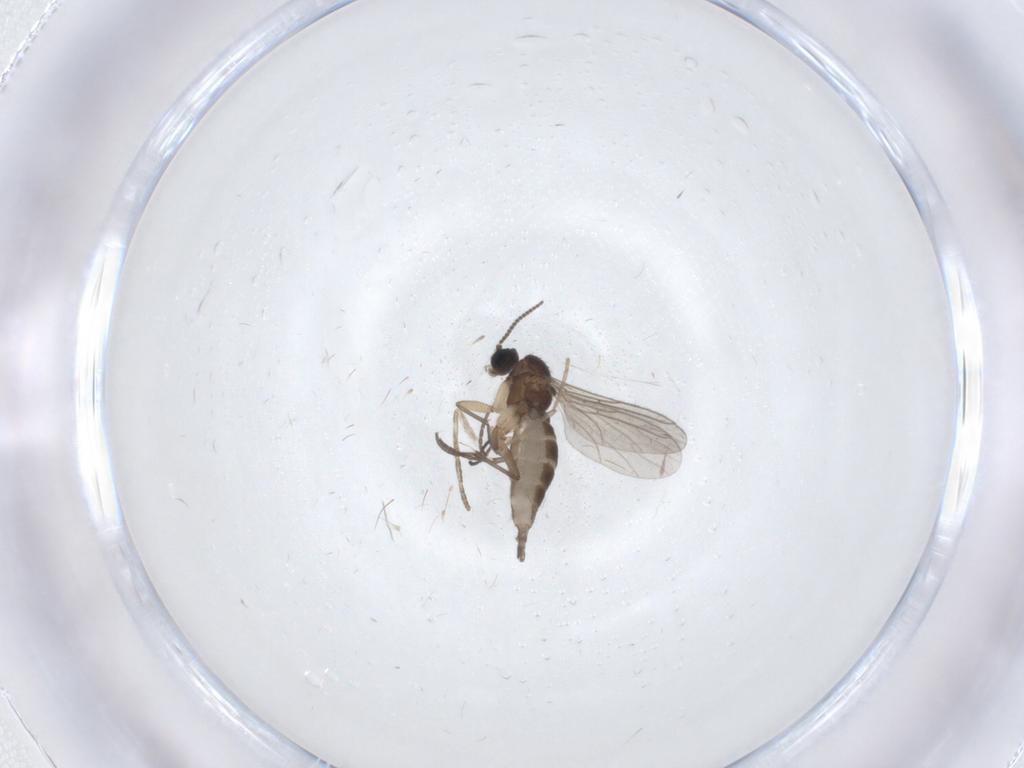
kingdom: Animalia
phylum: Arthropoda
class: Insecta
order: Diptera
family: Sciaridae
